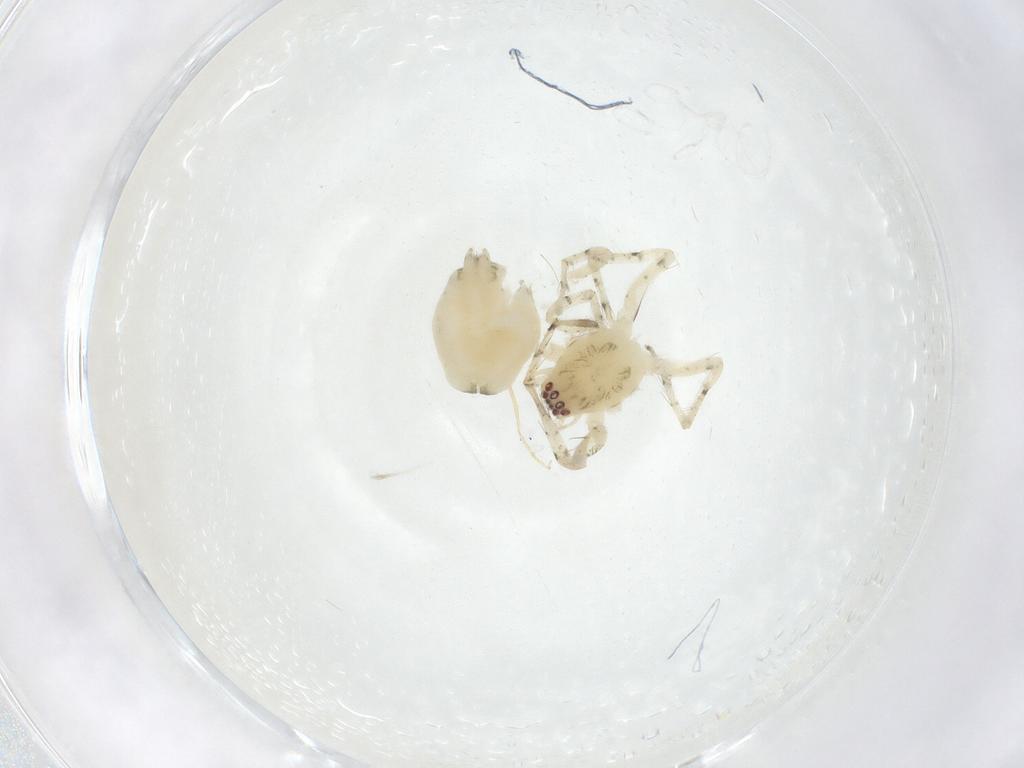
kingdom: Animalia
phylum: Arthropoda
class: Arachnida
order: Araneae
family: Anyphaenidae
